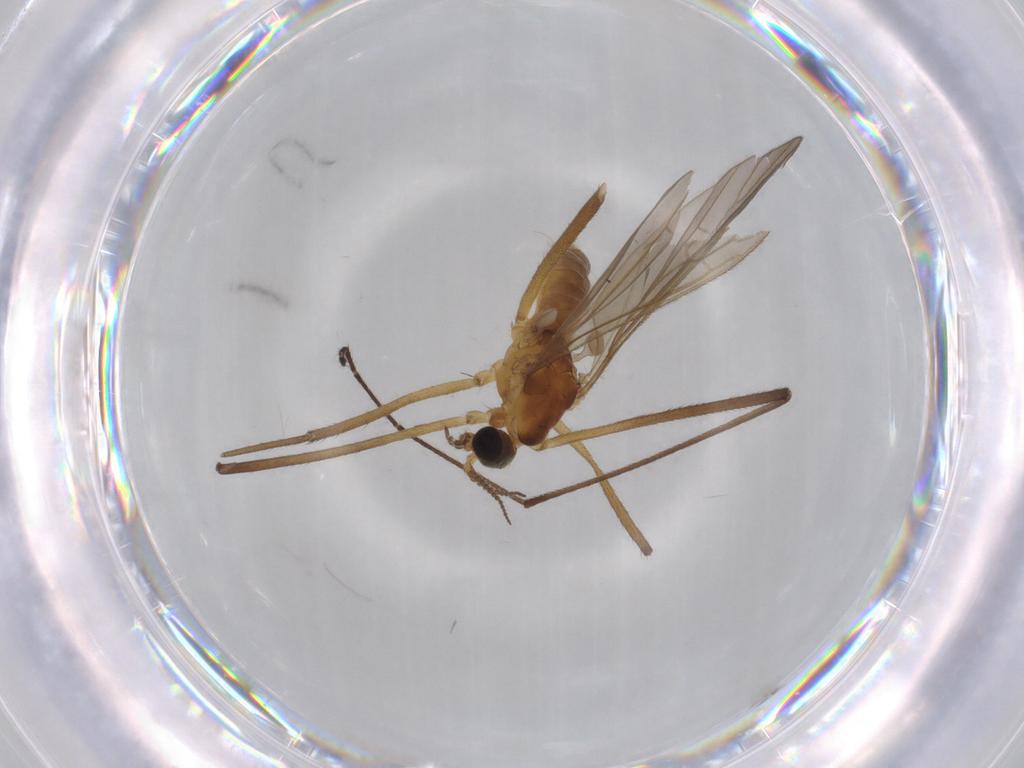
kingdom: Animalia
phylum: Arthropoda
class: Insecta
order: Diptera
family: Limoniidae
